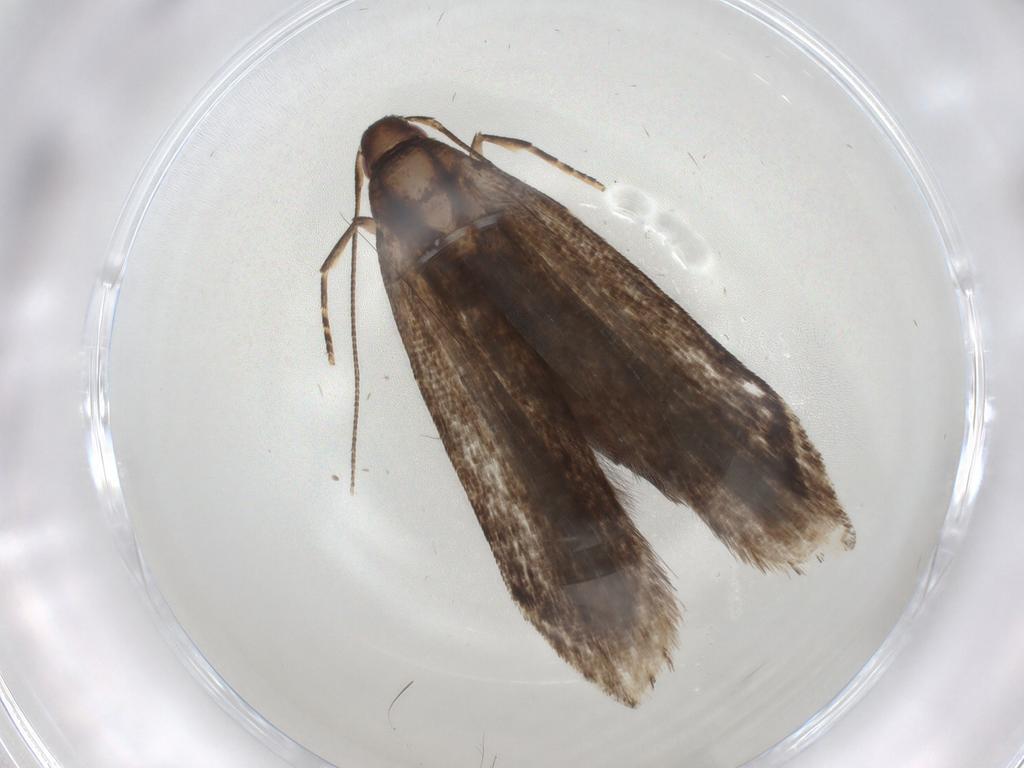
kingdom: Animalia
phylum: Arthropoda
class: Insecta
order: Lepidoptera
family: Gelechiidae
